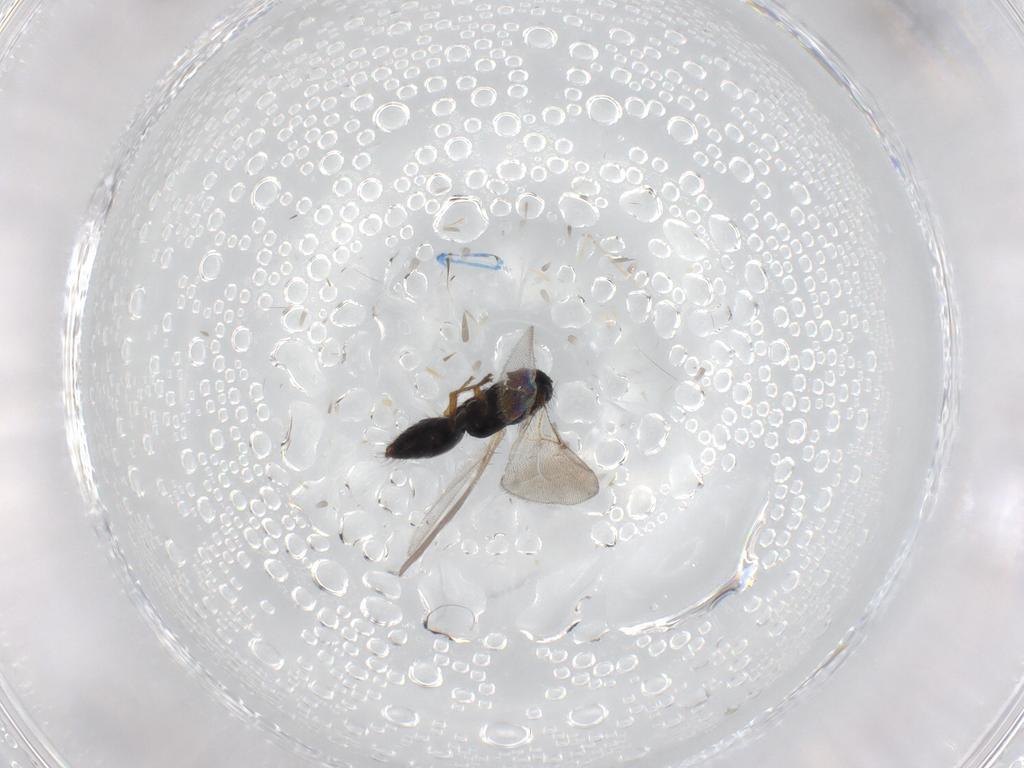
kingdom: Animalia
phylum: Arthropoda
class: Insecta
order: Hymenoptera
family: Bethylidae
